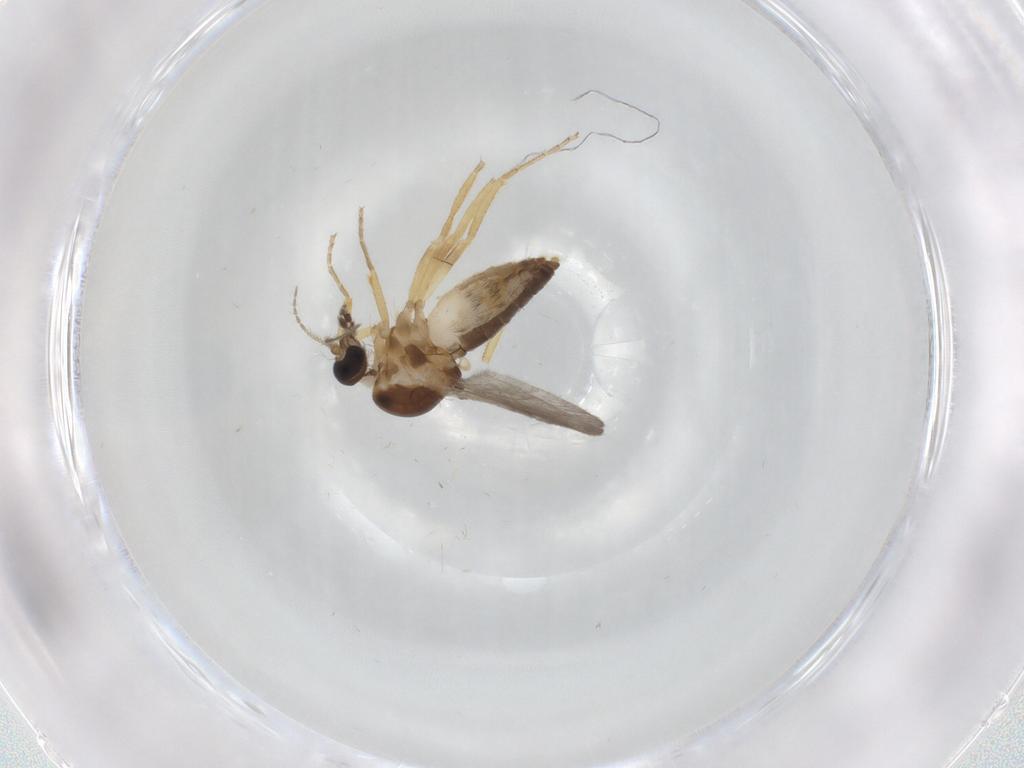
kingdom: Animalia
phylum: Arthropoda
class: Insecta
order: Diptera
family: Ceratopogonidae
